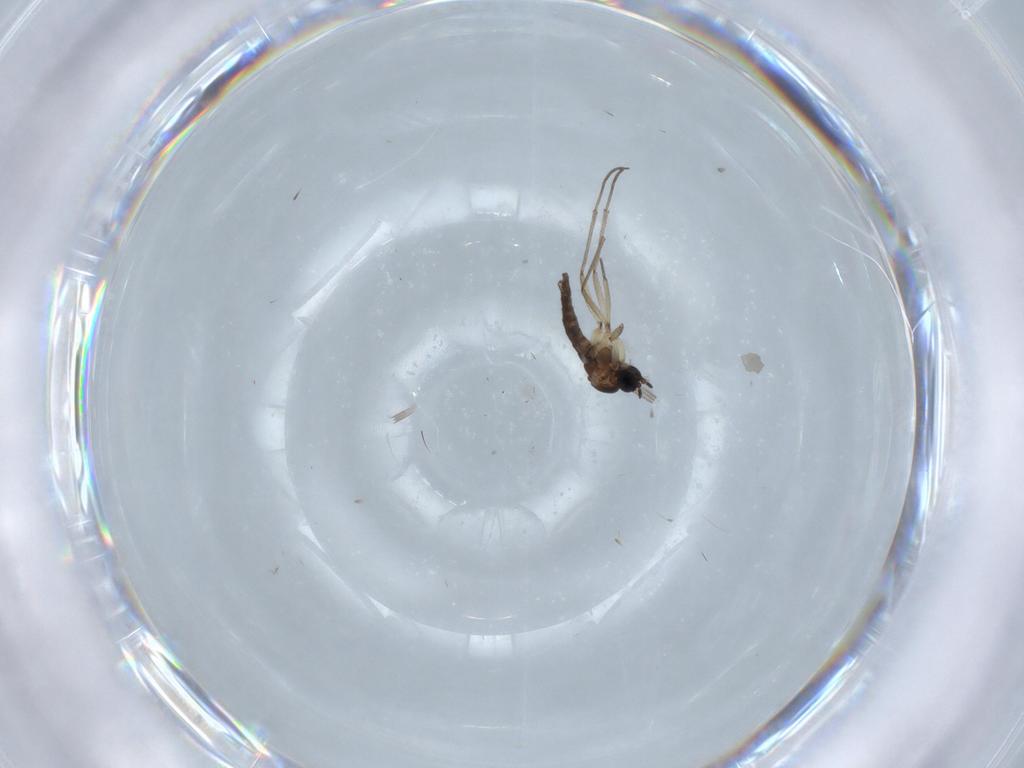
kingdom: Animalia
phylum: Arthropoda
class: Insecta
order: Diptera
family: Sciaridae
